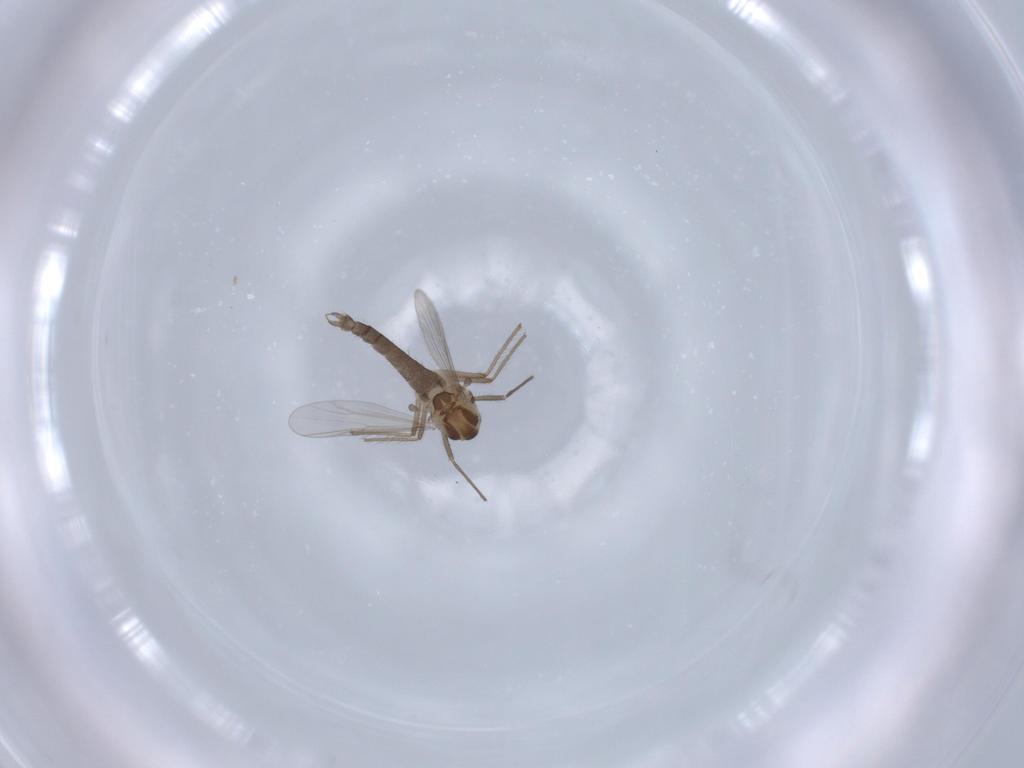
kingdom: Animalia
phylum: Arthropoda
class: Insecta
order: Diptera
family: Chironomidae
